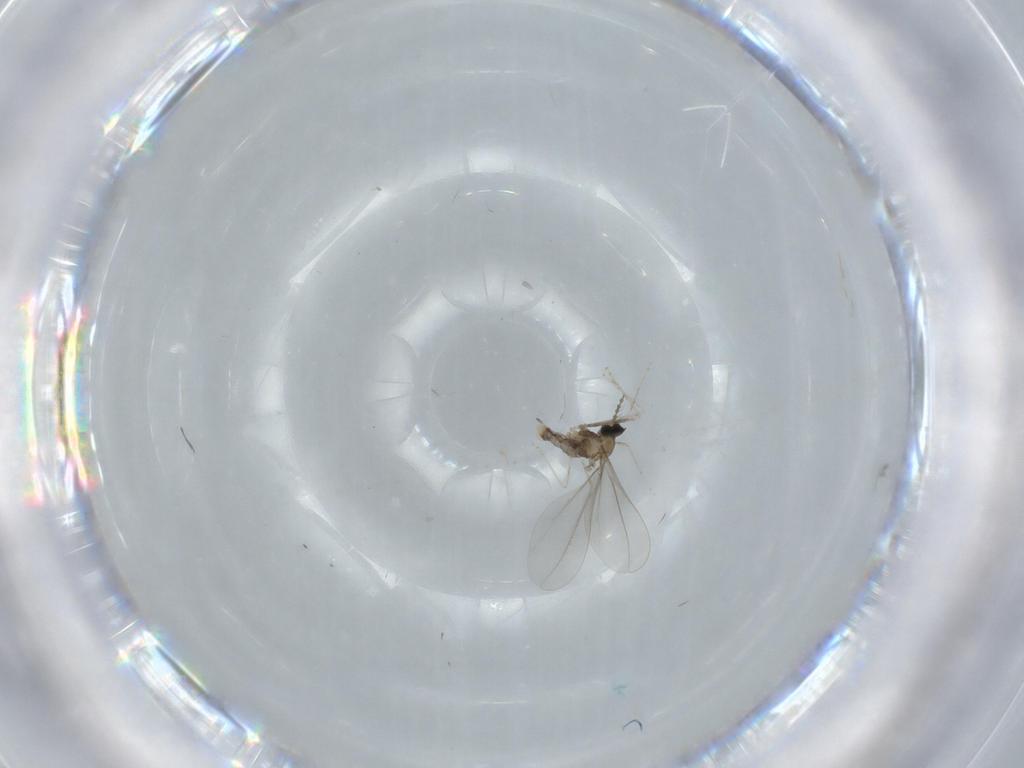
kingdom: Animalia
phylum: Arthropoda
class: Insecta
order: Diptera
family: Cecidomyiidae
